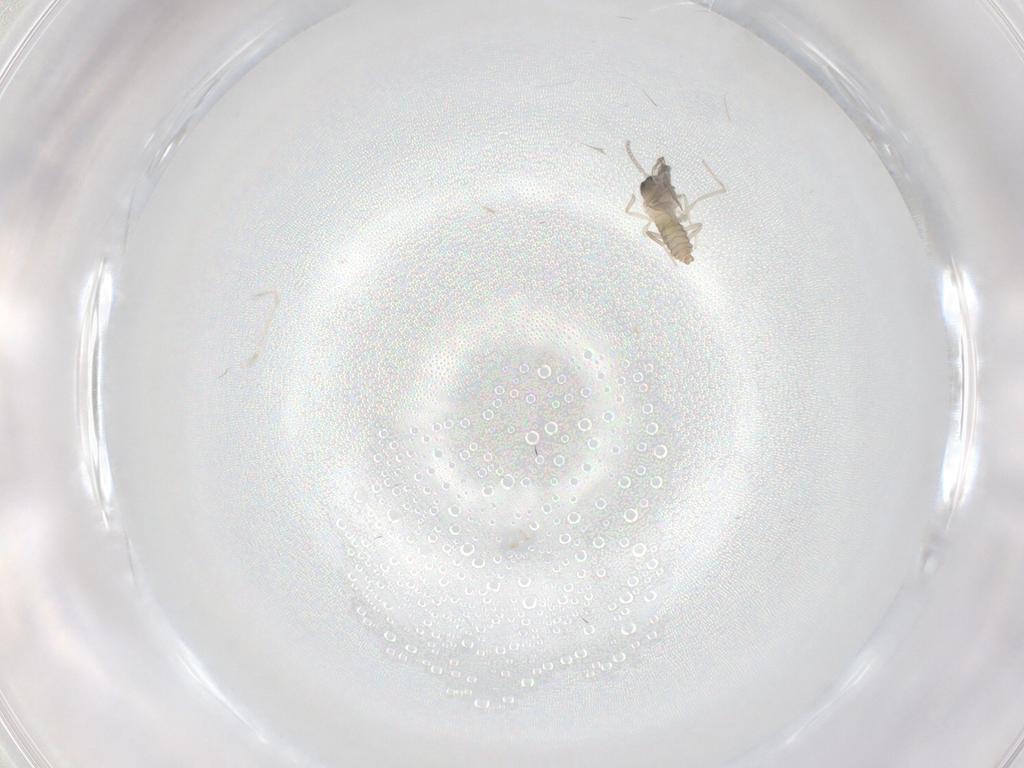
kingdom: Animalia
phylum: Arthropoda
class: Insecta
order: Diptera
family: Cecidomyiidae
